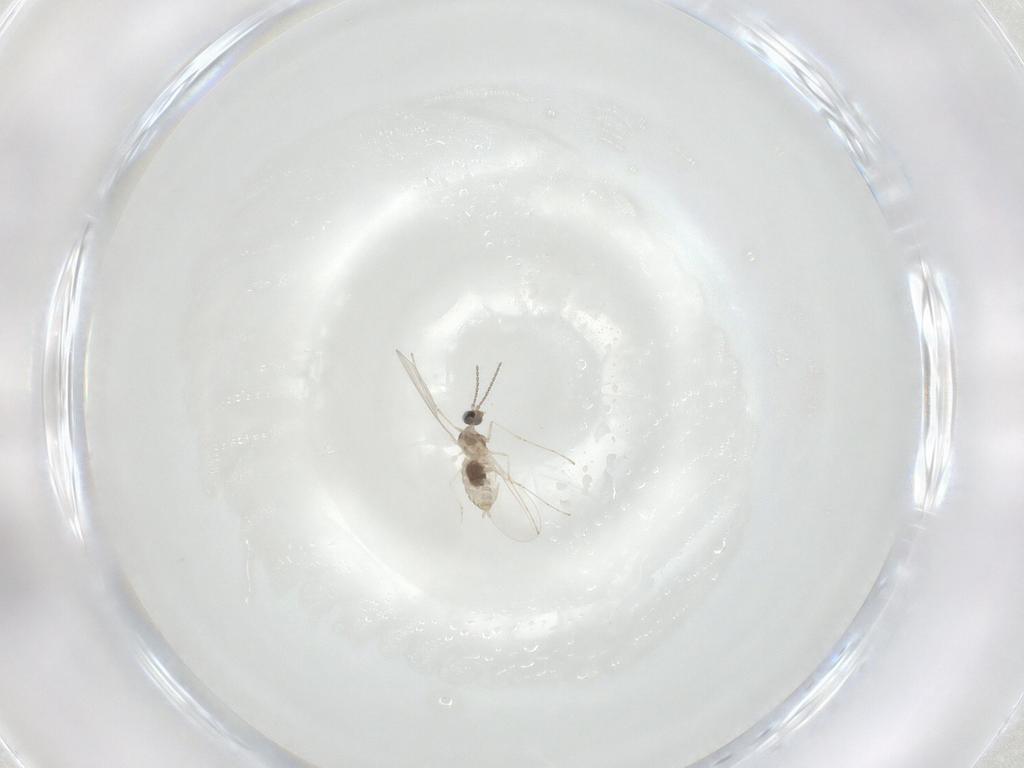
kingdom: Animalia
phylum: Arthropoda
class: Insecta
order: Diptera
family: Cecidomyiidae
